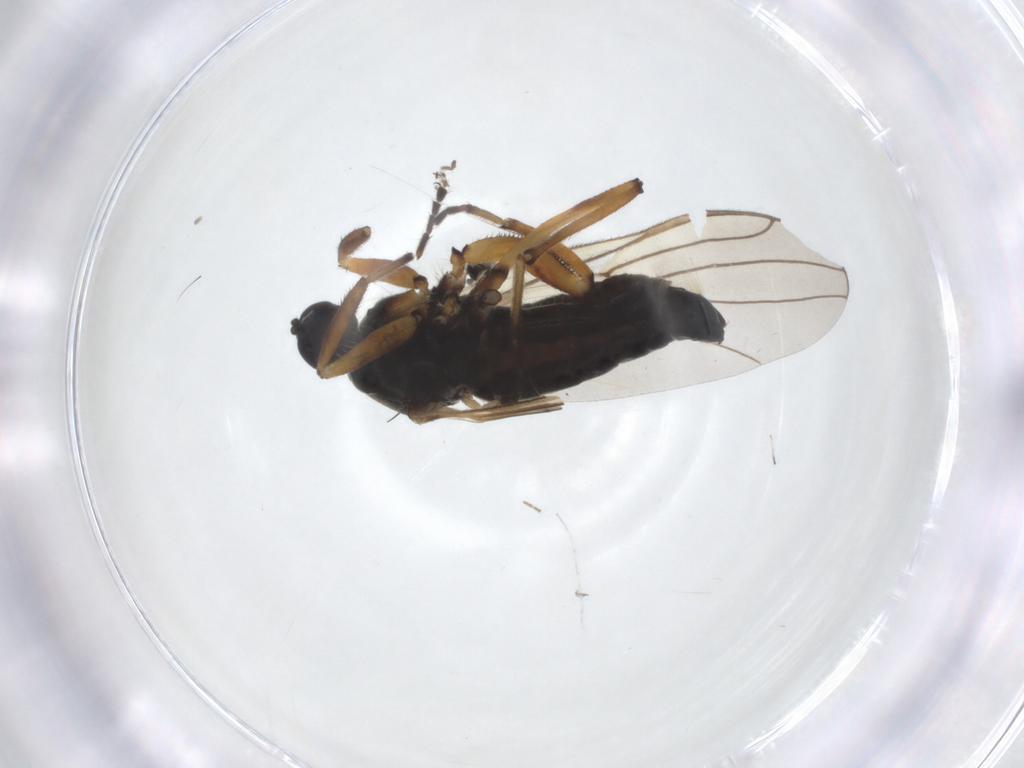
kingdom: Animalia
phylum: Arthropoda
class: Insecta
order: Diptera
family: Hybotidae
